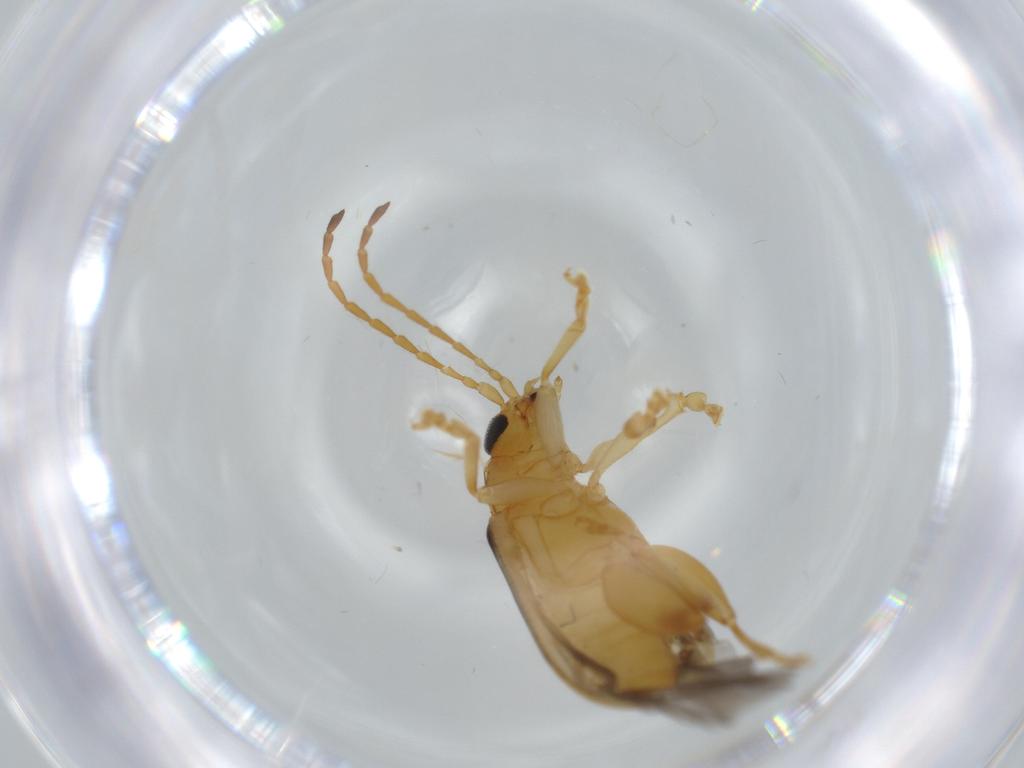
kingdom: Animalia
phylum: Arthropoda
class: Insecta
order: Coleoptera
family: Chrysomelidae
